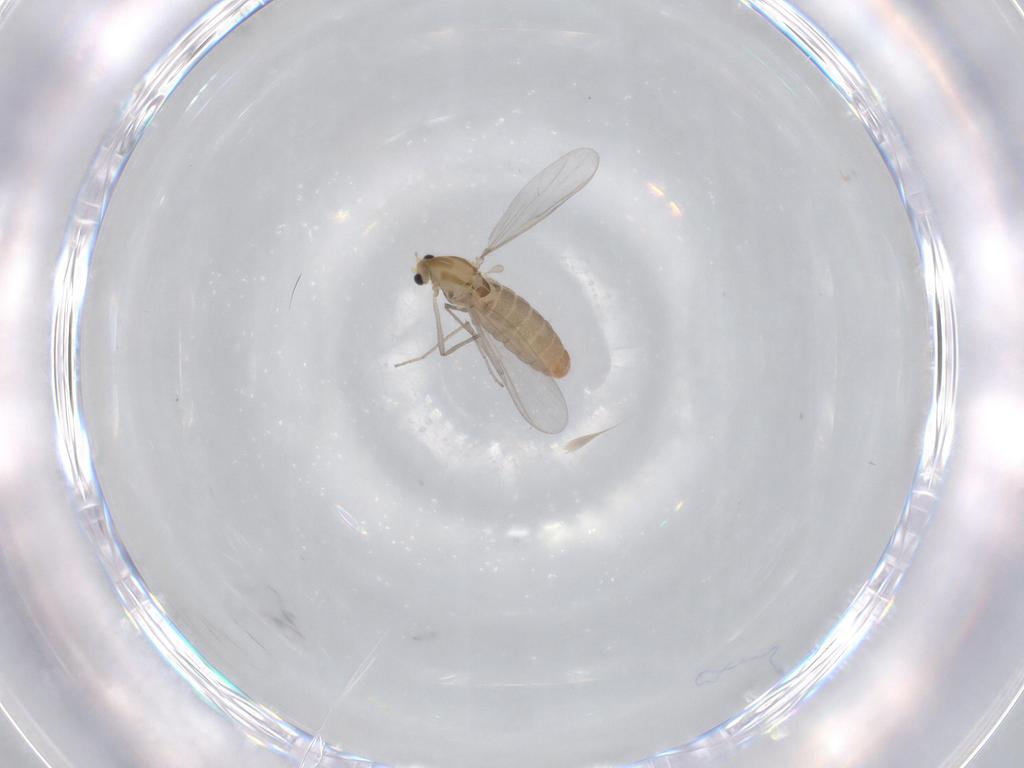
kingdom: Animalia
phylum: Arthropoda
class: Insecta
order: Diptera
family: Chironomidae
